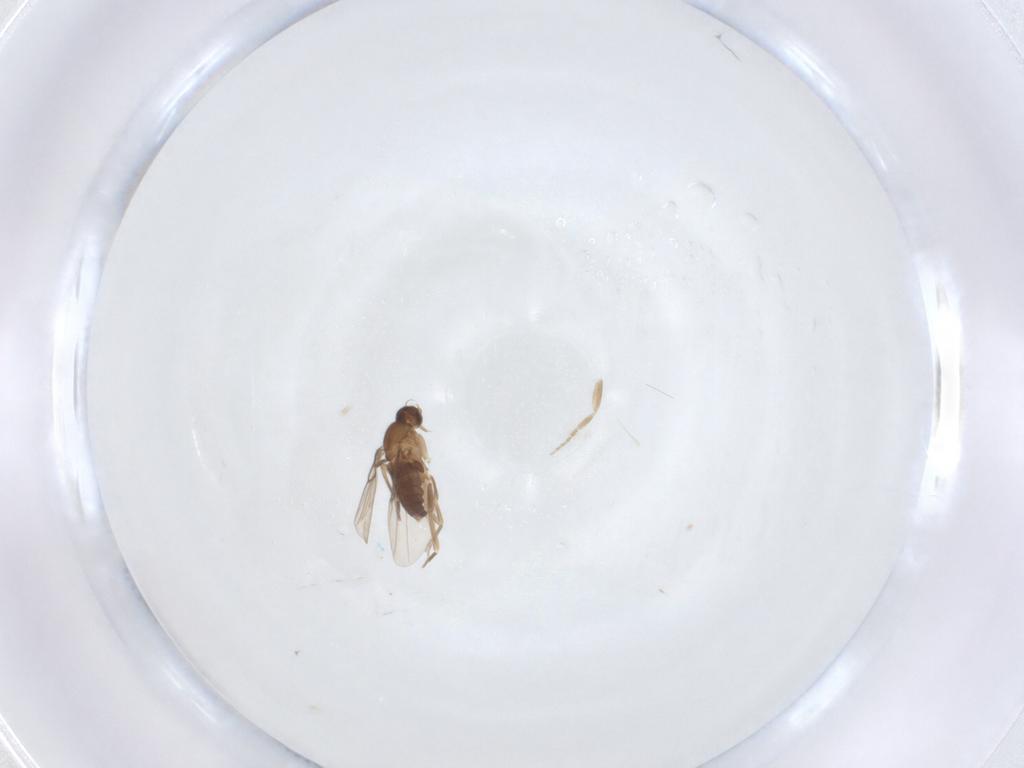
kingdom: Animalia
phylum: Arthropoda
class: Insecta
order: Diptera
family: Phoridae
